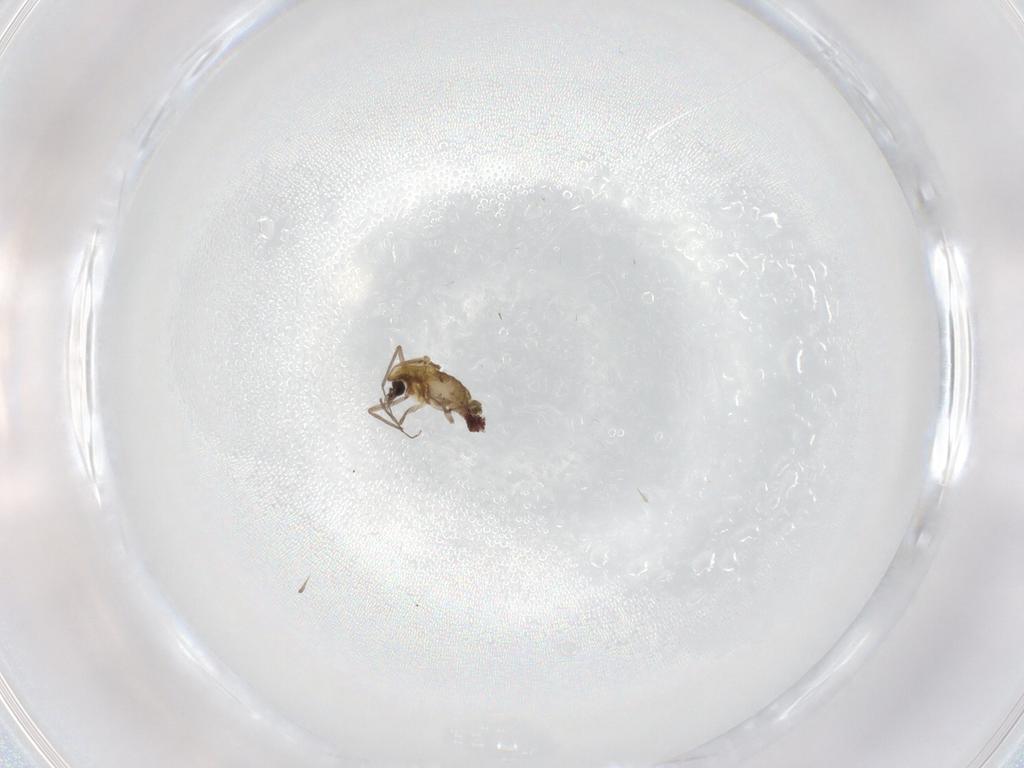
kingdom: Animalia
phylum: Arthropoda
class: Insecta
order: Diptera
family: Chironomidae
